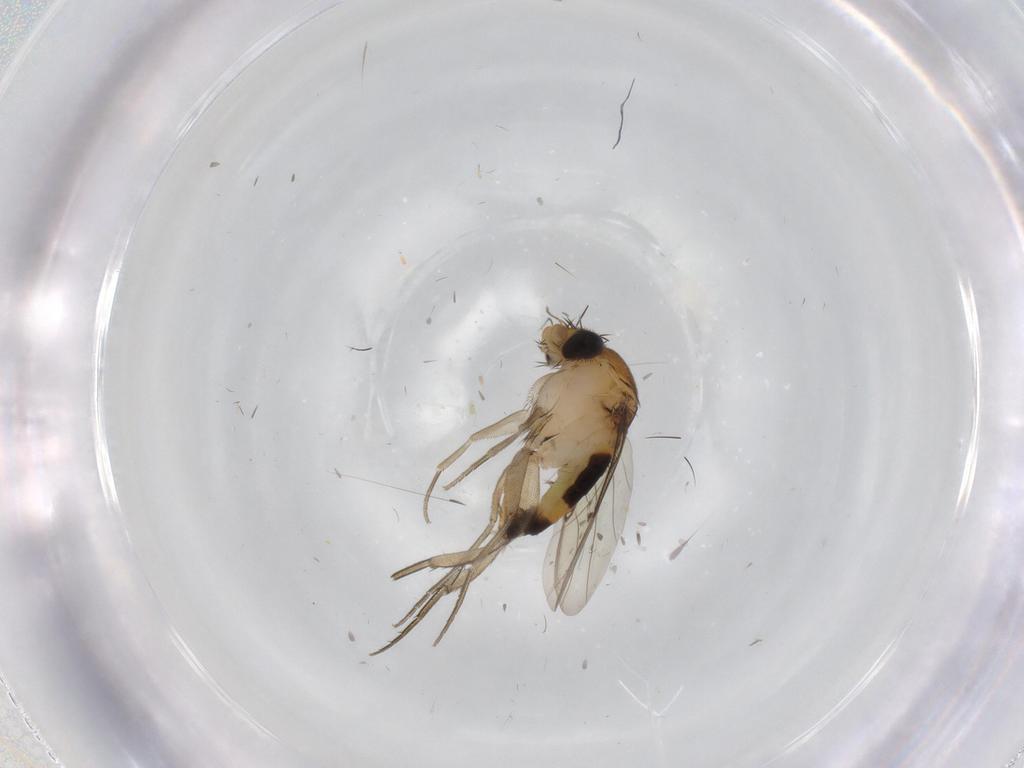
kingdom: Animalia
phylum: Arthropoda
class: Insecta
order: Diptera
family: Phoridae
